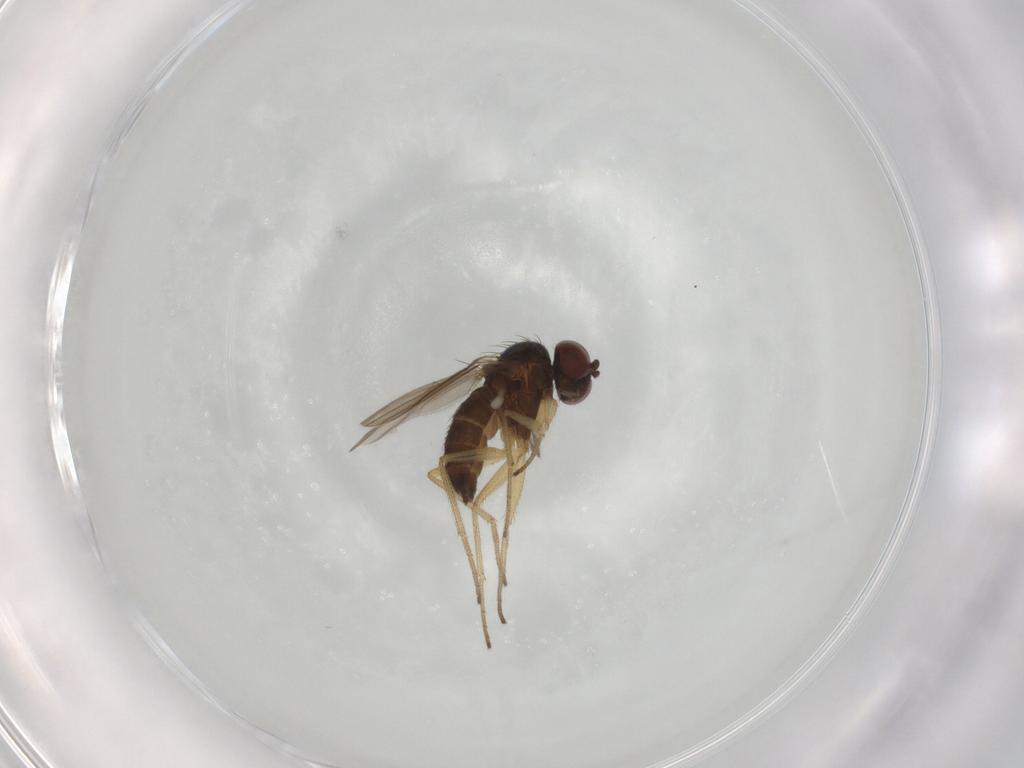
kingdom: Animalia
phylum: Arthropoda
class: Insecta
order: Diptera
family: Dolichopodidae
